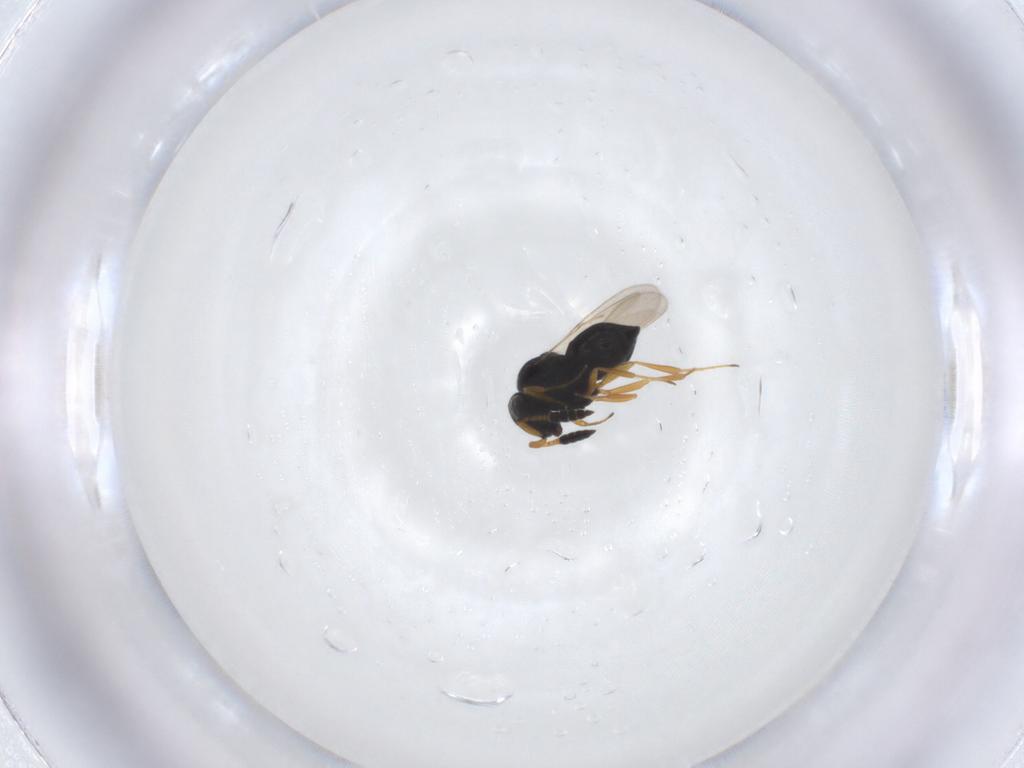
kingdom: Animalia
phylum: Arthropoda
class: Insecta
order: Hymenoptera
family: Scelionidae
